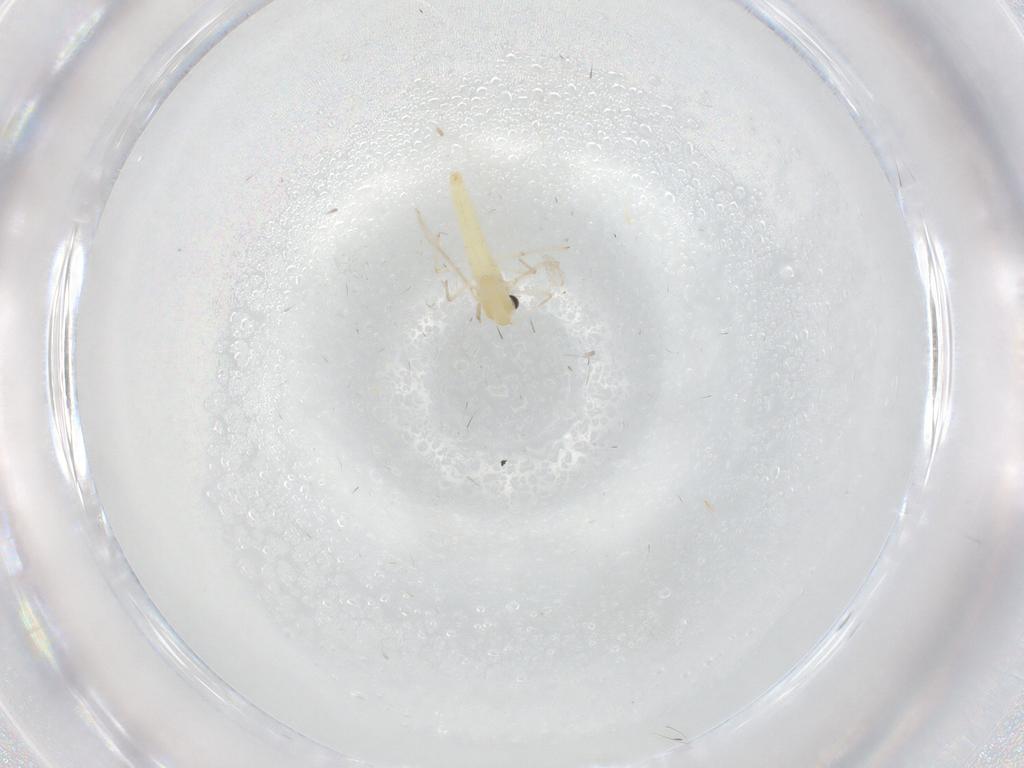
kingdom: Animalia
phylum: Arthropoda
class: Insecta
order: Diptera
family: Chironomidae
